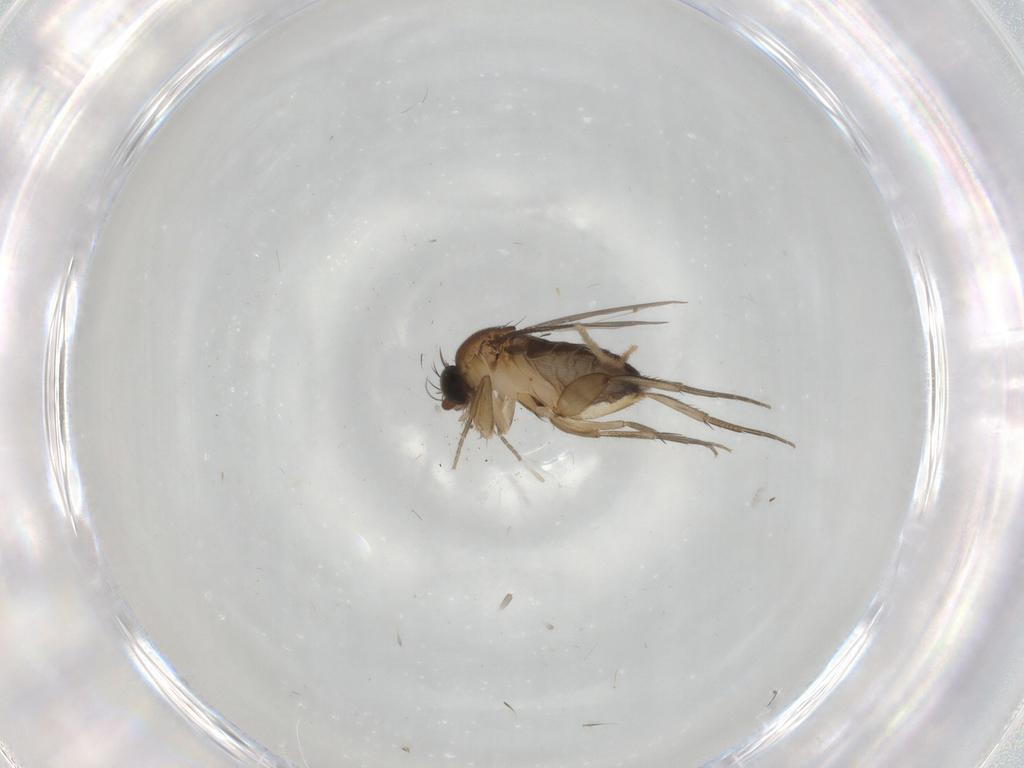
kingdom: Animalia
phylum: Arthropoda
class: Insecta
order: Diptera
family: Phoridae
